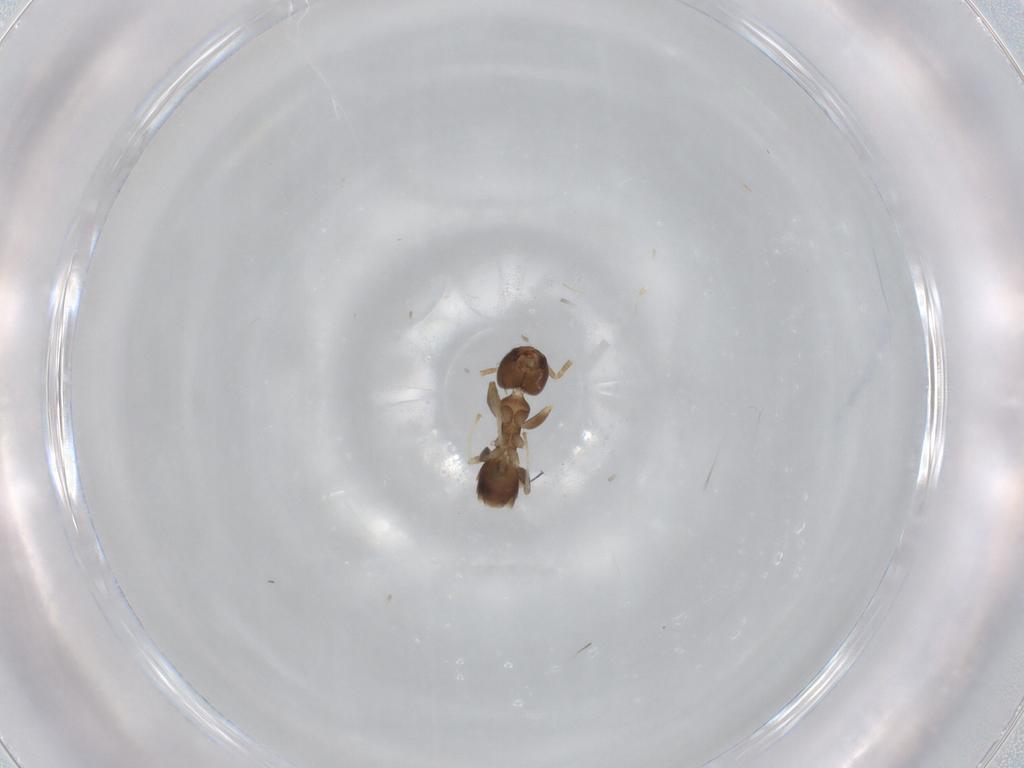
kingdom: Animalia
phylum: Arthropoda
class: Insecta
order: Hymenoptera
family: Formicidae
